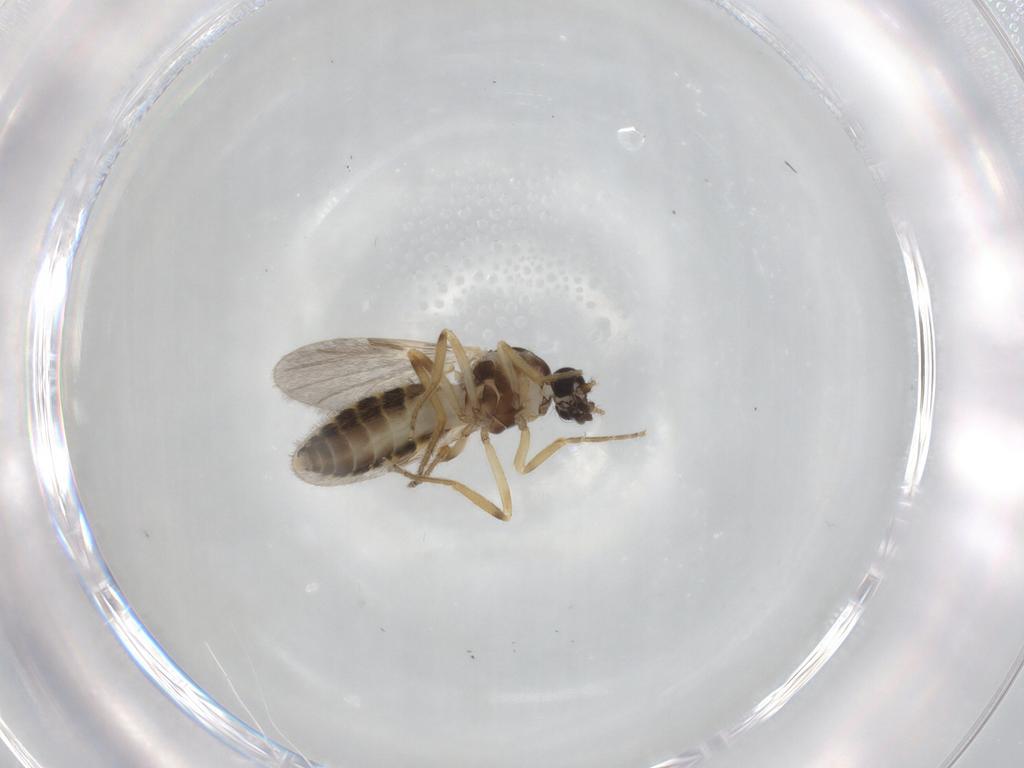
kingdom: Animalia
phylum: Arthropoda
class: Insecta
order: Diptera
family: Ceratopogonidae
